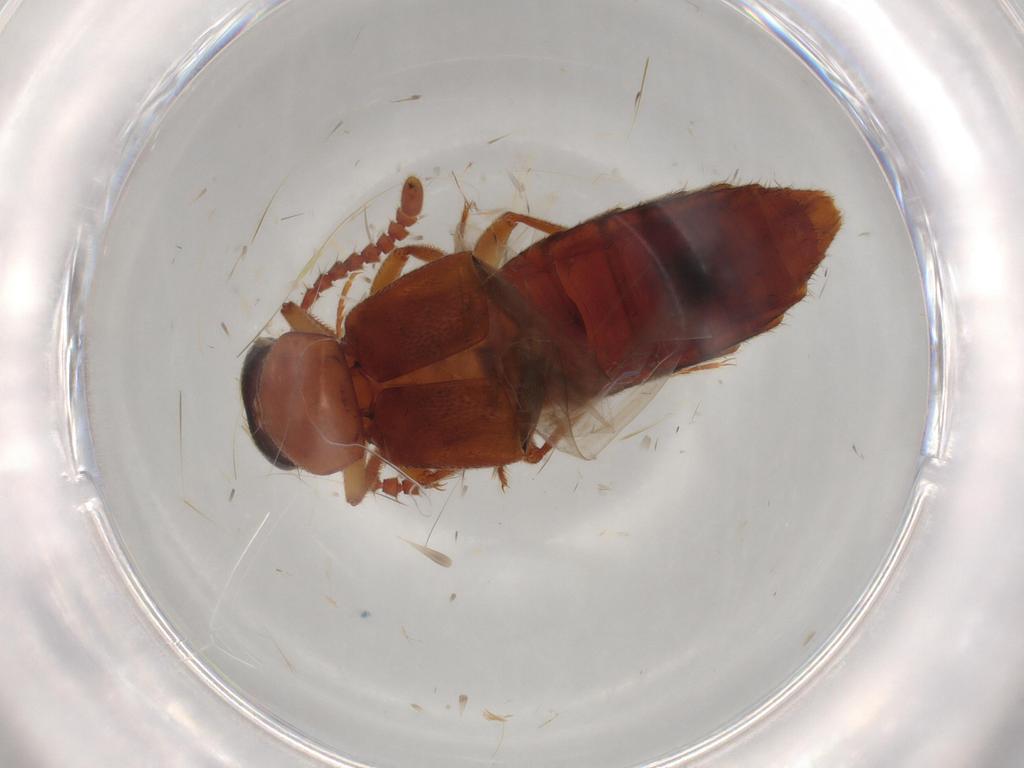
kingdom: Animalia
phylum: Arthropoda
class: Insecta
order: Coleoptera
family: Staphylinidae
